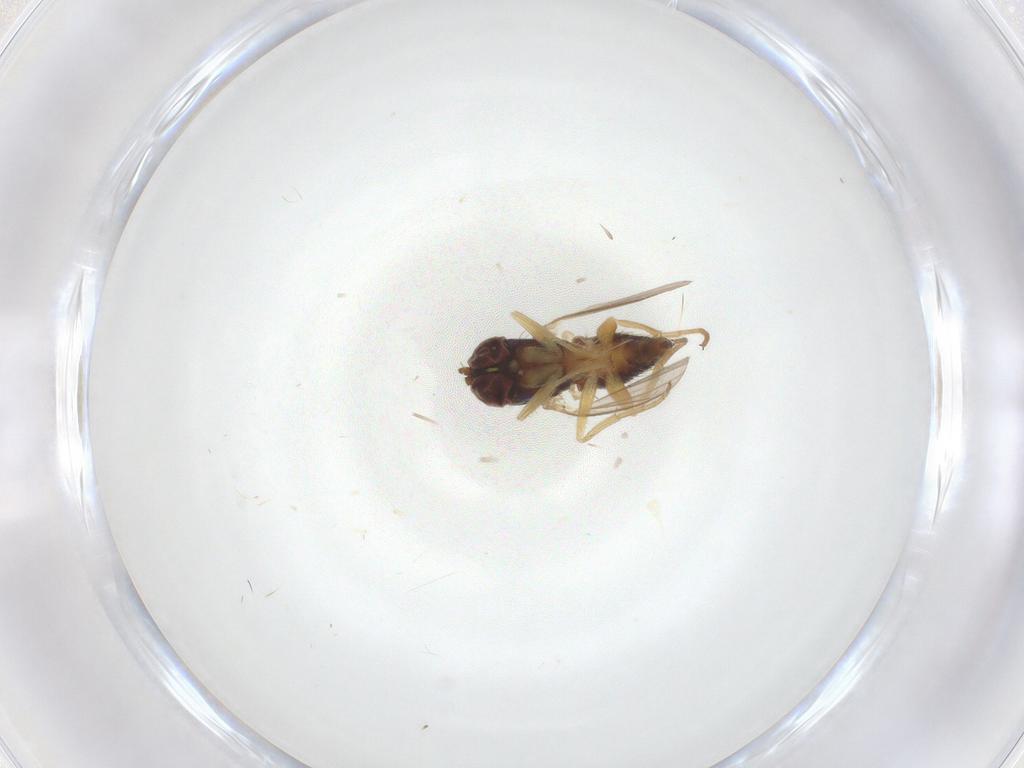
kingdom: Animalia
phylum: Arthropoda
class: Insecta
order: Diptera
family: Dolichopodidae
